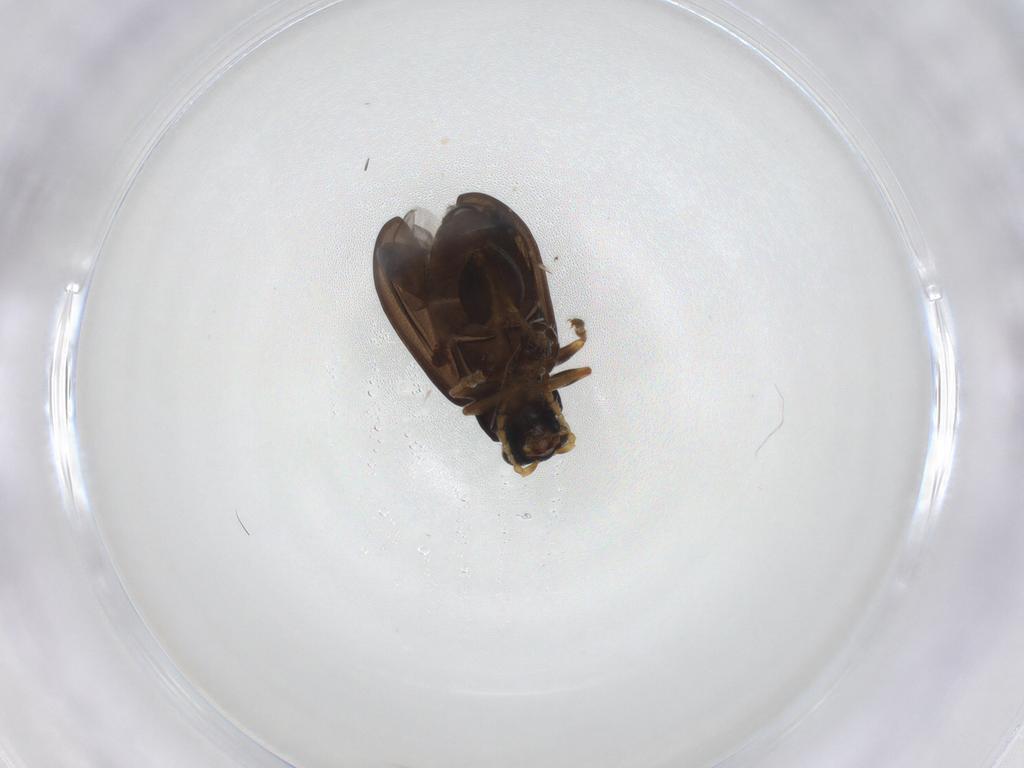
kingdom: Animalia
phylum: Arthropoda
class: Insecta
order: Coleoptera
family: Chrysomelidae
